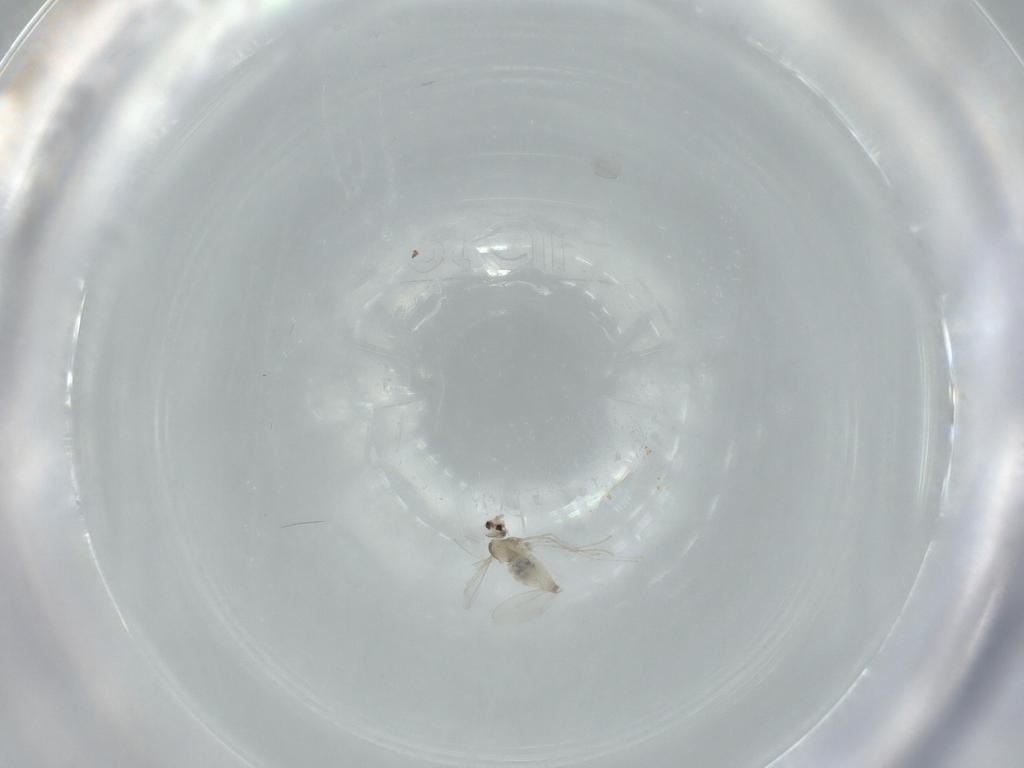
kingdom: Animalia
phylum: Arthropoda
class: Insecta
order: Diptera
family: Cecidomyiidae
